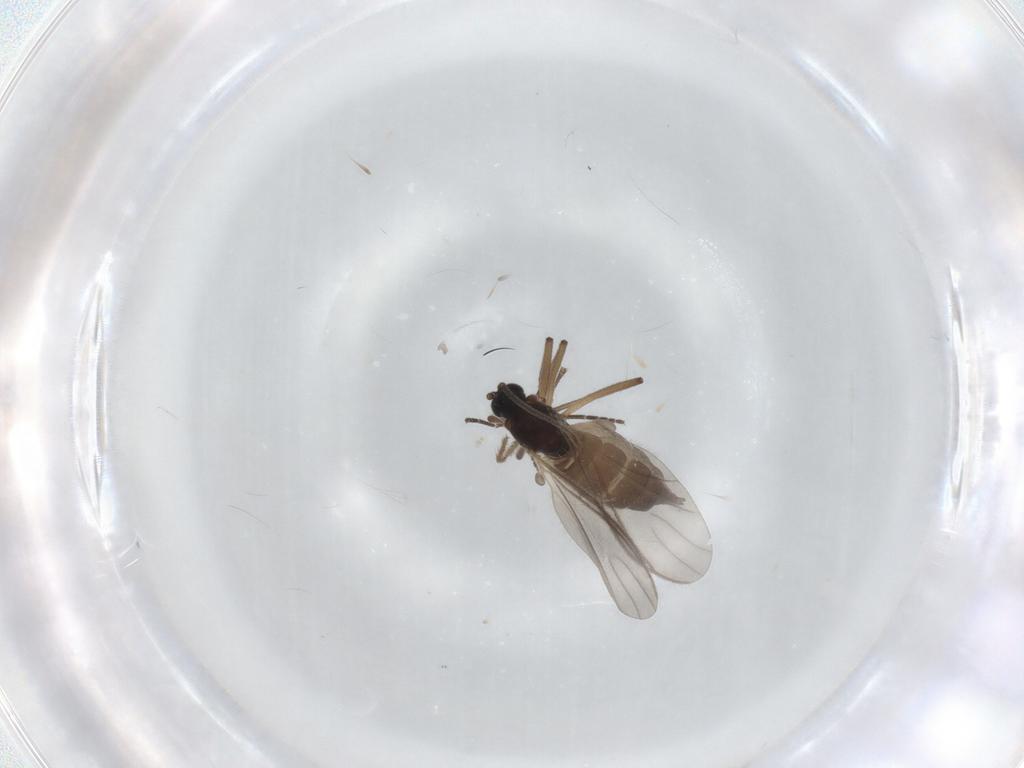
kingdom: Animalia
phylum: Arthropoda
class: Insecta
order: Diptera
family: Sciaridae
